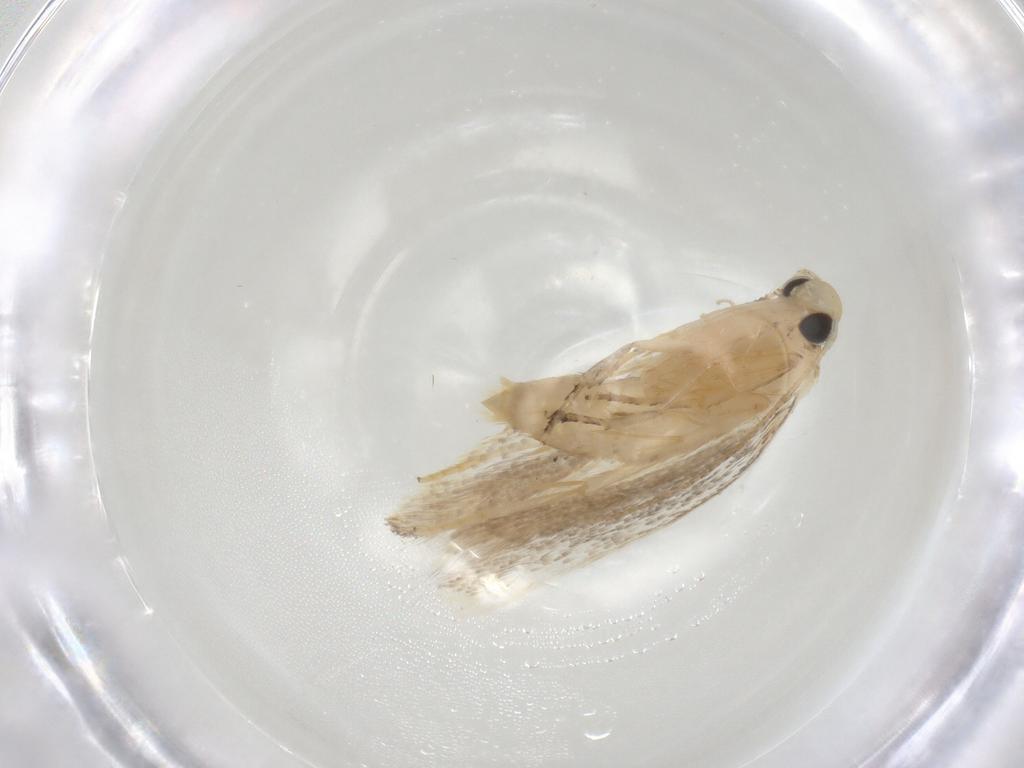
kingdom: Animalia
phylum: Arthropoda
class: Insecta
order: Lepidoptera
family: Autostichidae
